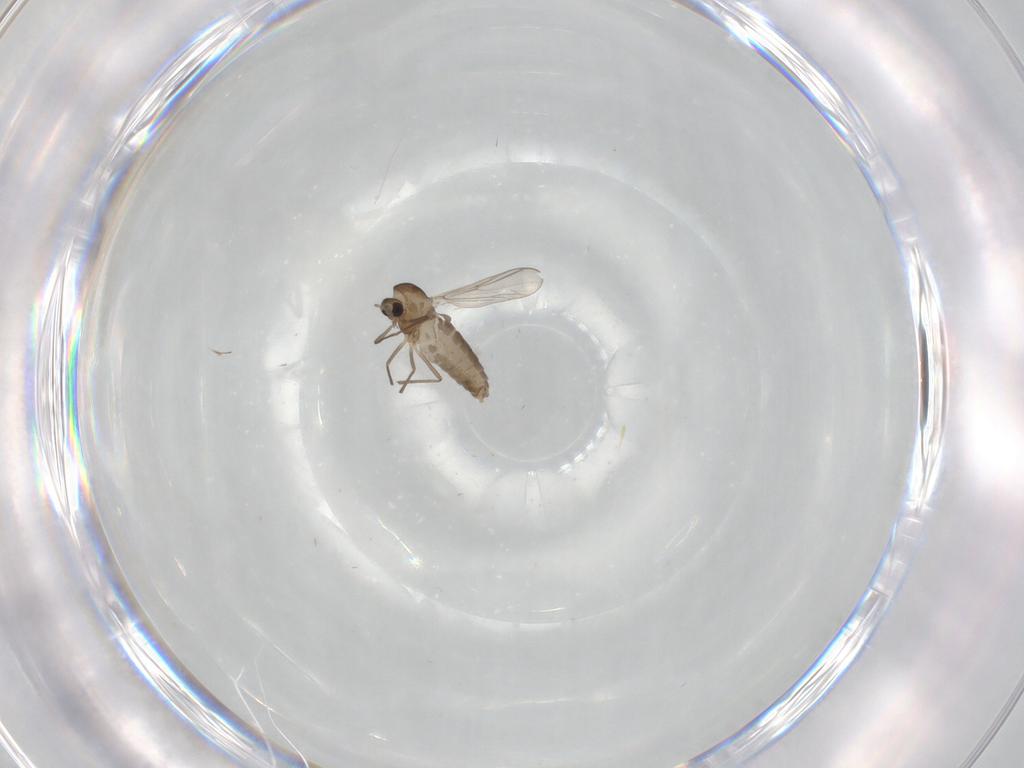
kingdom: Animalia
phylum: Arthropoda
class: Insecta
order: Diptera
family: Chironomidae
